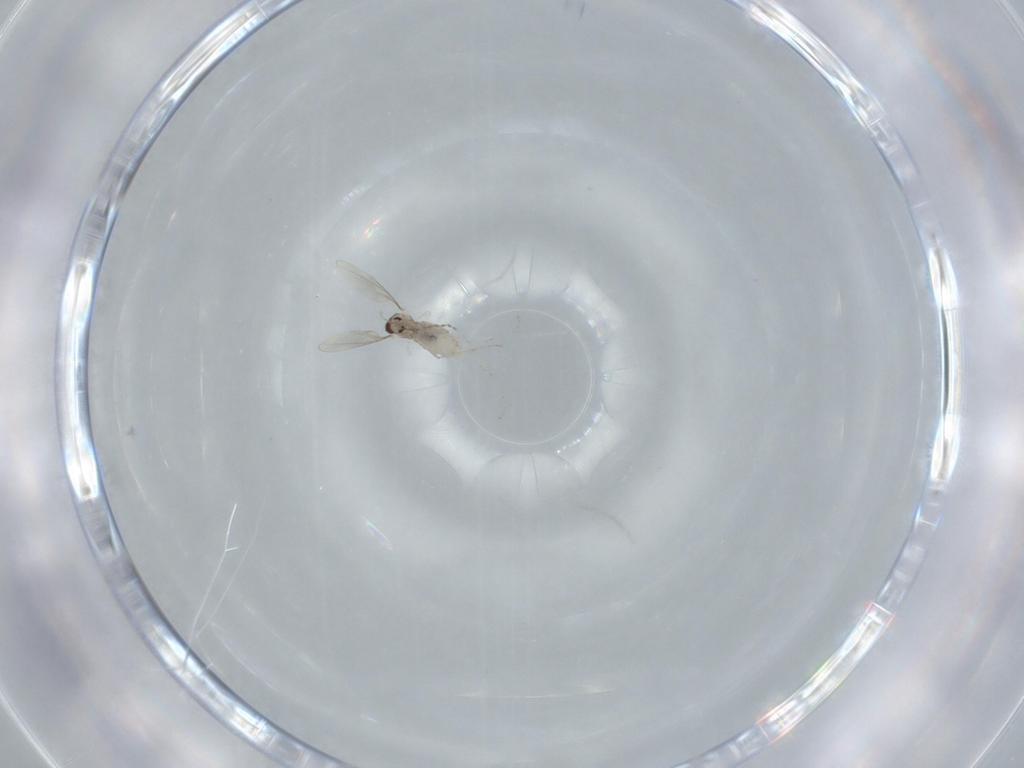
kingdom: Animalia
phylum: Arthropoda
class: Insecta
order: Diptera
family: Cecidomyiidae
